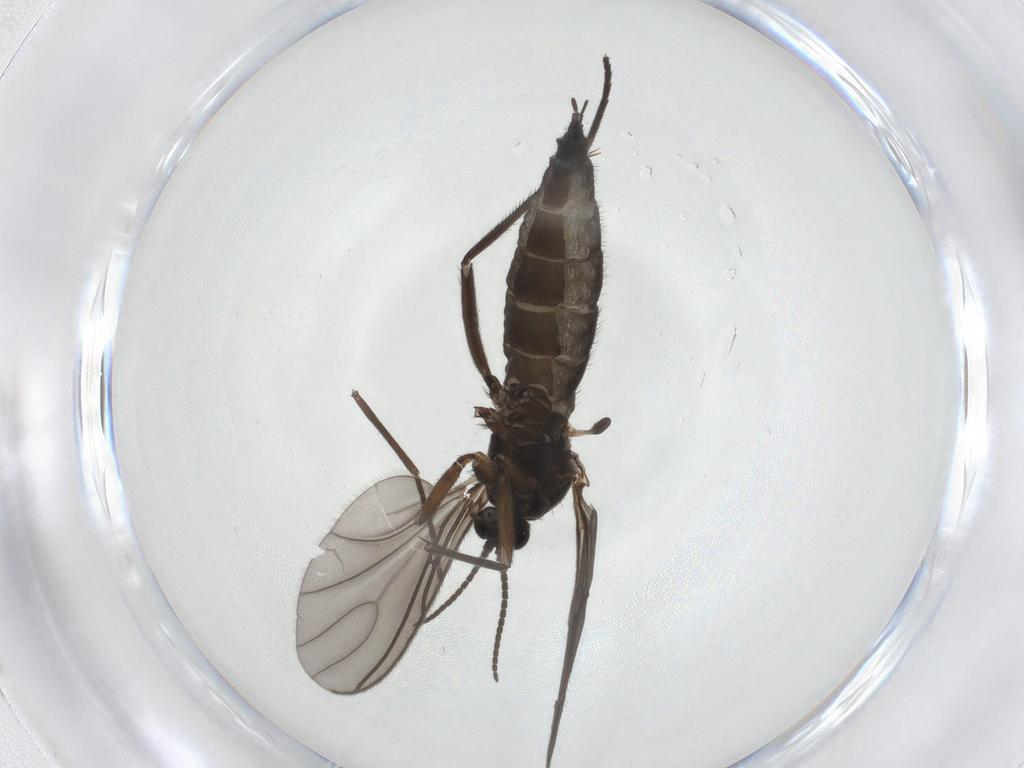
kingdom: Animalia
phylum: Arthropoda
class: Insecta
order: Diptera
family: Sciaridae
